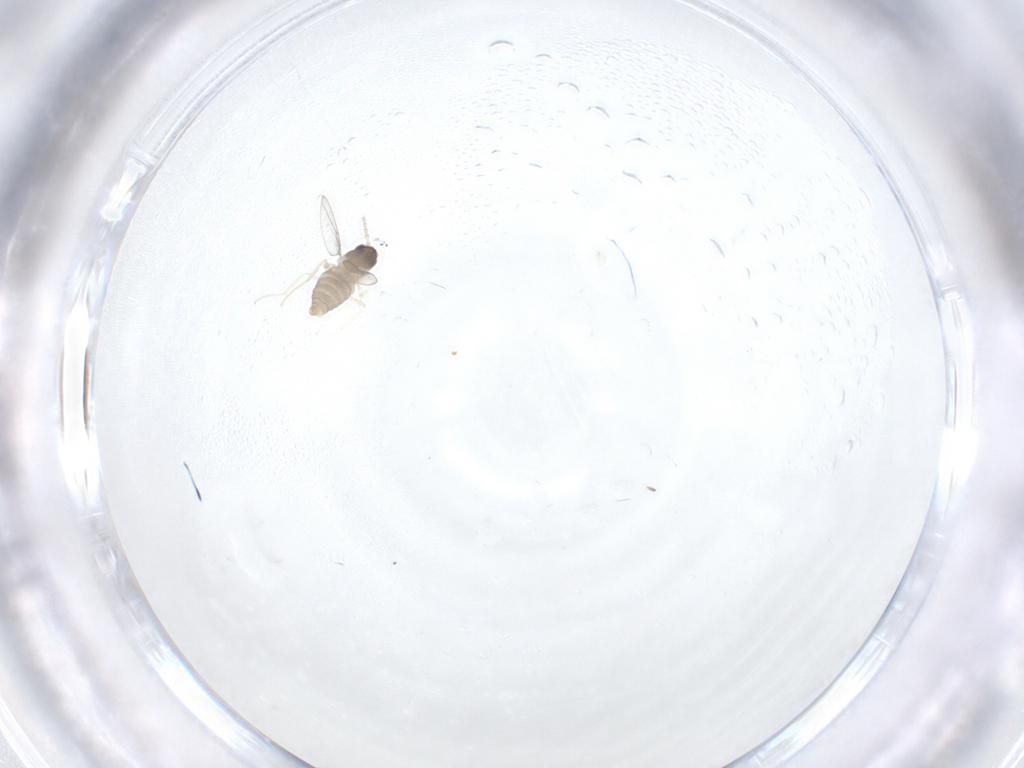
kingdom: Animalia
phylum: Arthropoda
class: Insecta
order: Diptera
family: Cecidomyiidae
